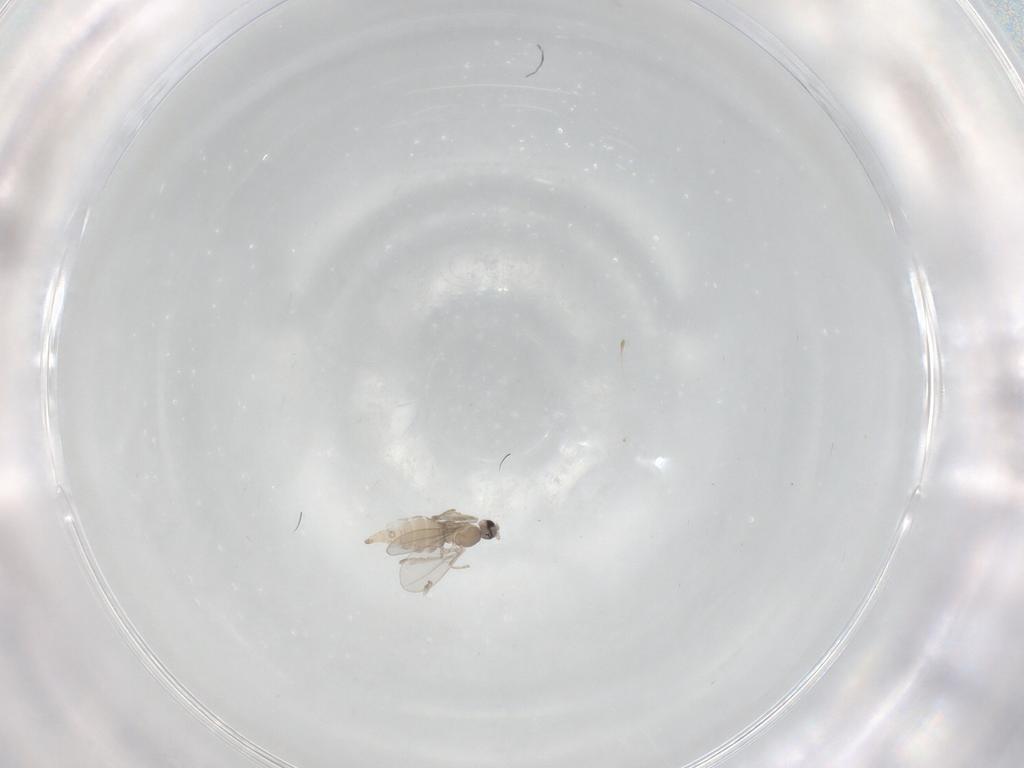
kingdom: Animalia
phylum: Arthropoda
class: Insecta
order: Diptera
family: Cecidomyiidae
